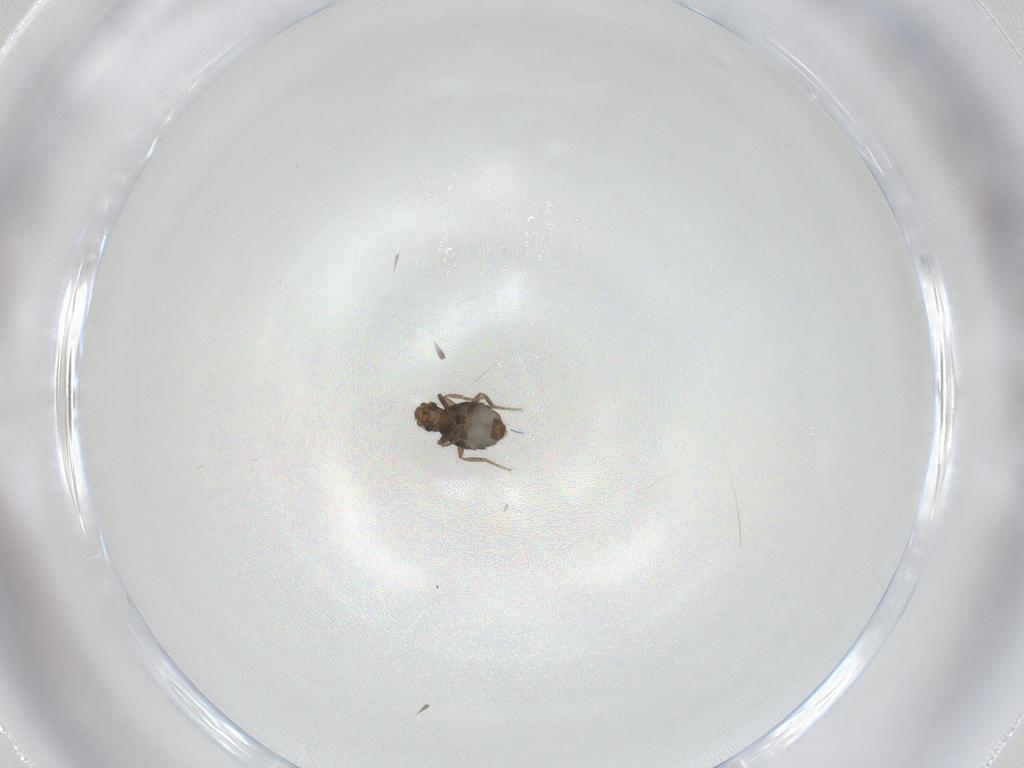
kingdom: Animalia
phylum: Arthropoda
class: Insecta
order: Diptera
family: Phoridae
